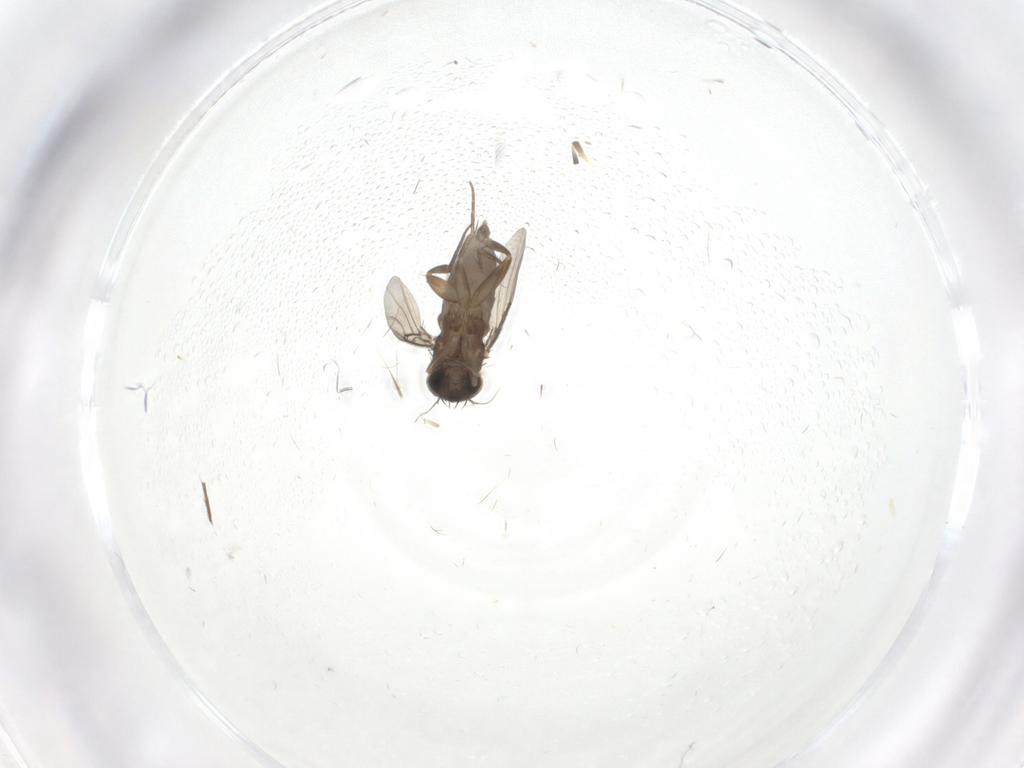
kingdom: Animalia
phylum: Arthropoda
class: Insecta
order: Diptera
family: Phoridae
